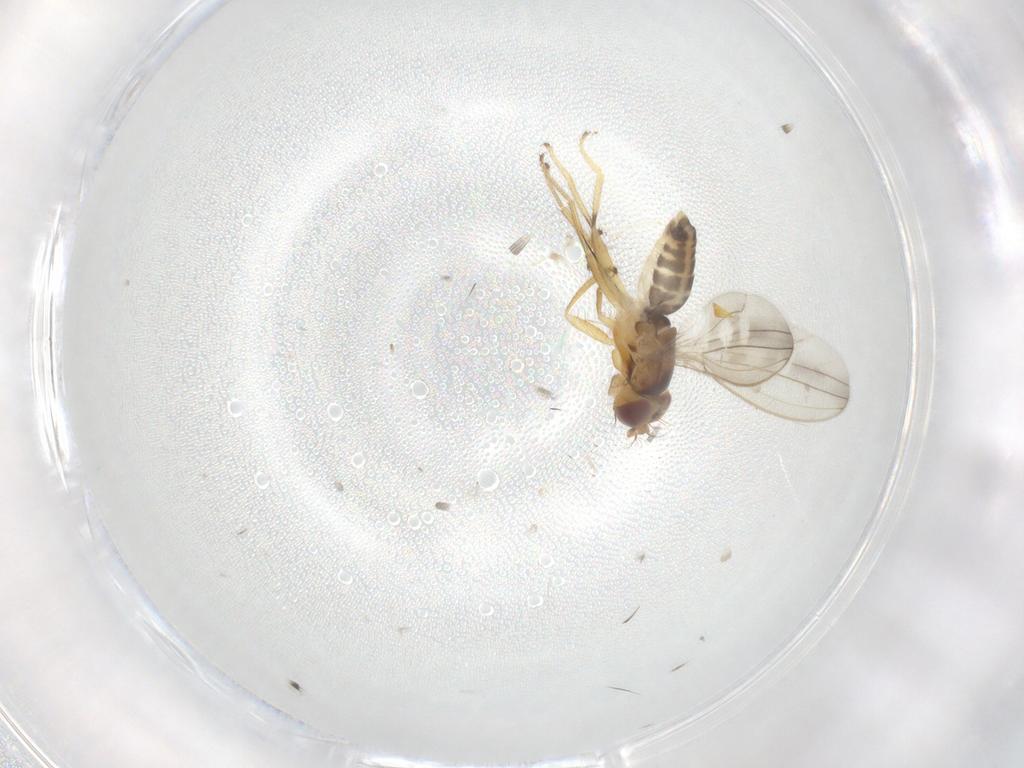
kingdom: Animalia
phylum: Arthropoda
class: Insecta
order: Diptera
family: Periscelididae
